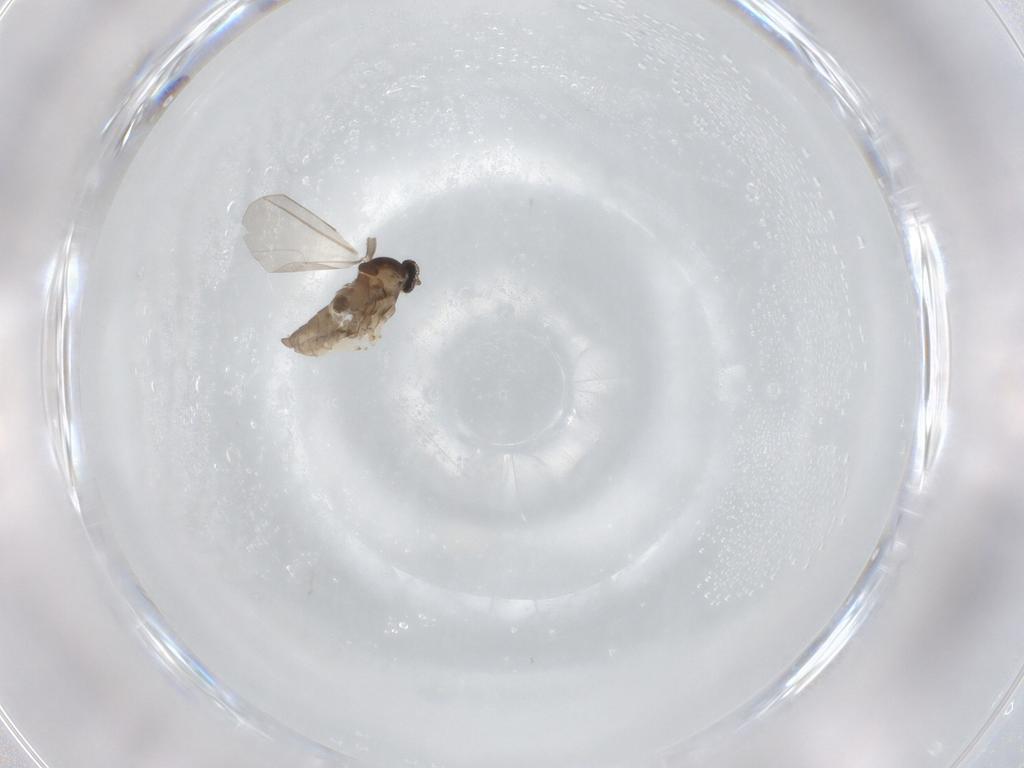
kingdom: Animalia
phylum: Arthropoda
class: Insecta
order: Diptera
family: Cecidomyiidae
